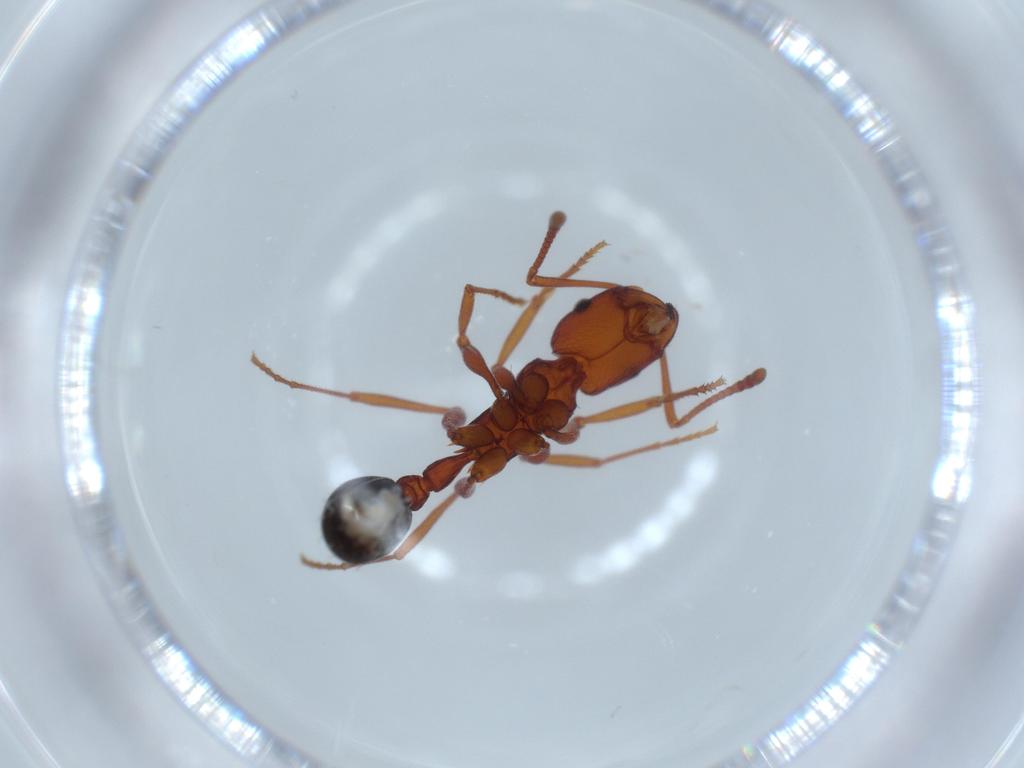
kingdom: Animalia
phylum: Arthropoda
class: Insecta
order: Hymenoptera
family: Formicidae
